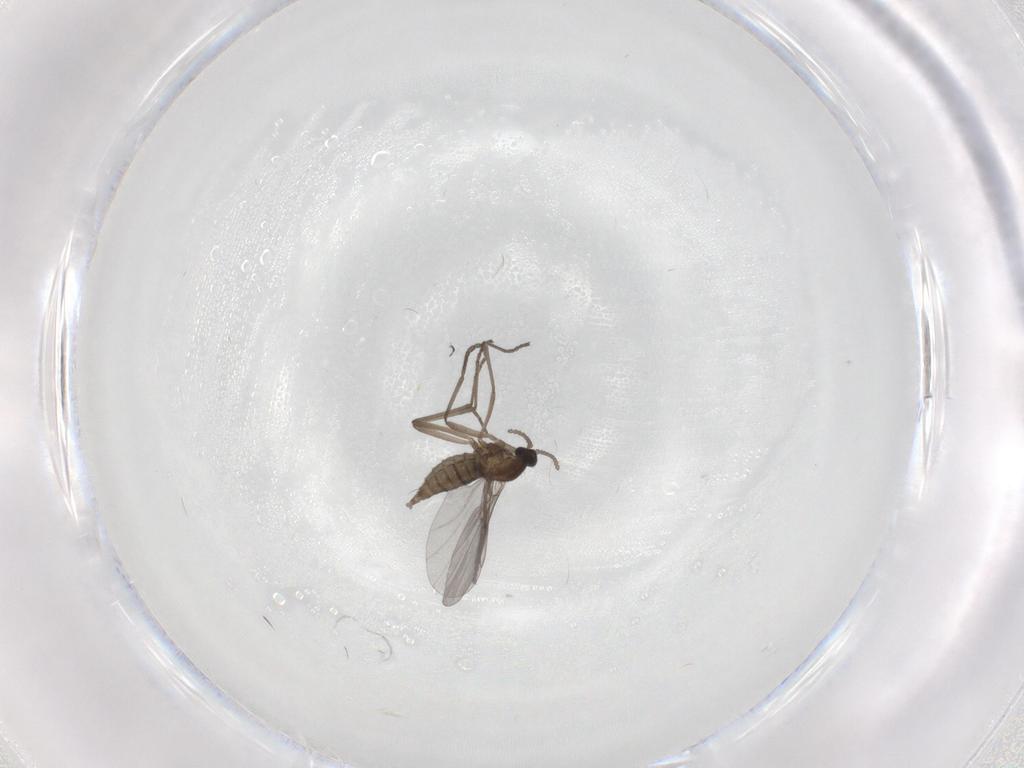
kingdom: Animalia
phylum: Arthropoda
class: Insecta
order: Diptera
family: Cecidomyiidae
